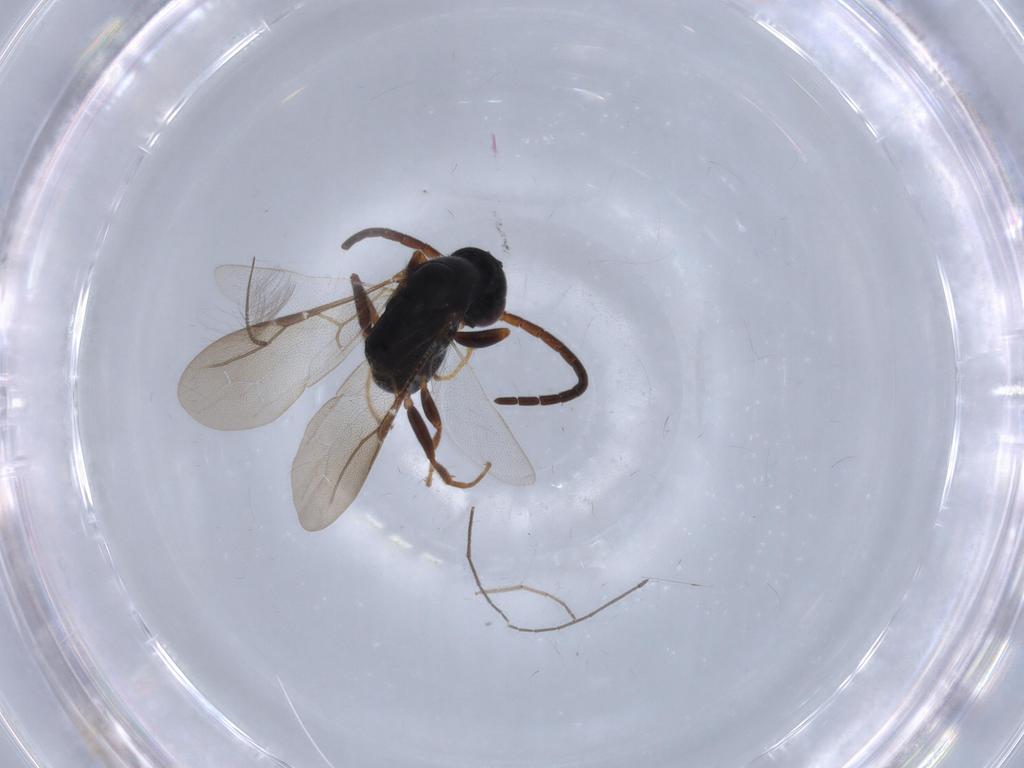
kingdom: Animalia
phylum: Arthropoda
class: Insecta
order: Hymenoptera
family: Bethylidae
